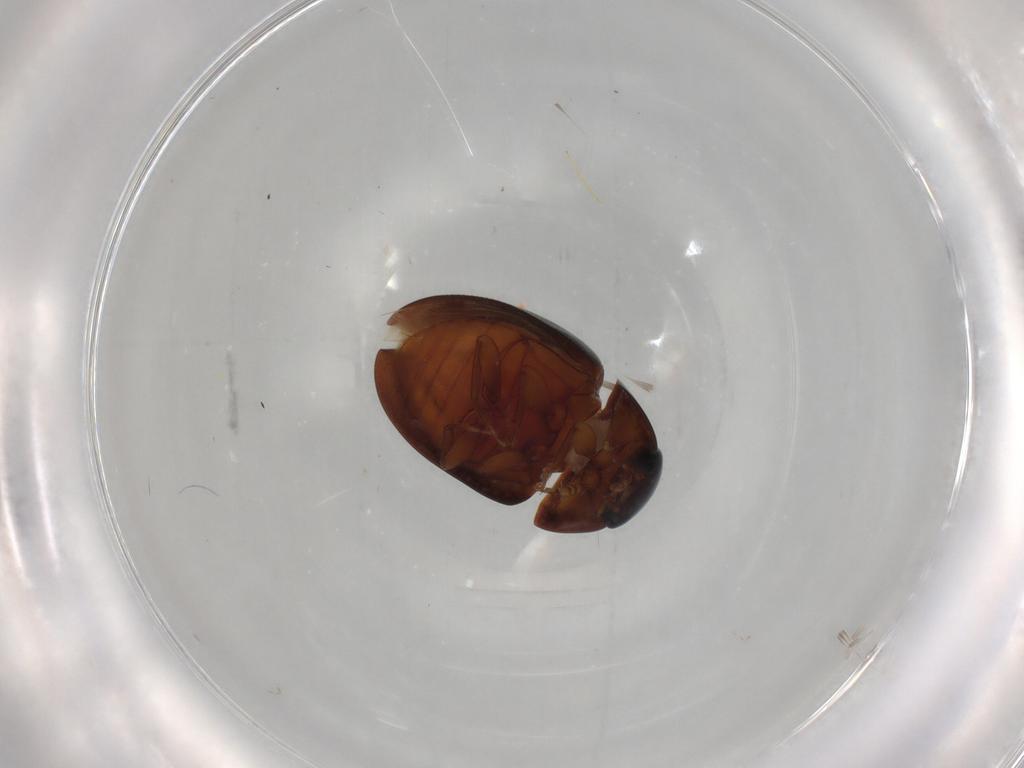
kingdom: Animalia
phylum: Arthropoda
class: Insecta
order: Coleoptera
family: Phalacridae
